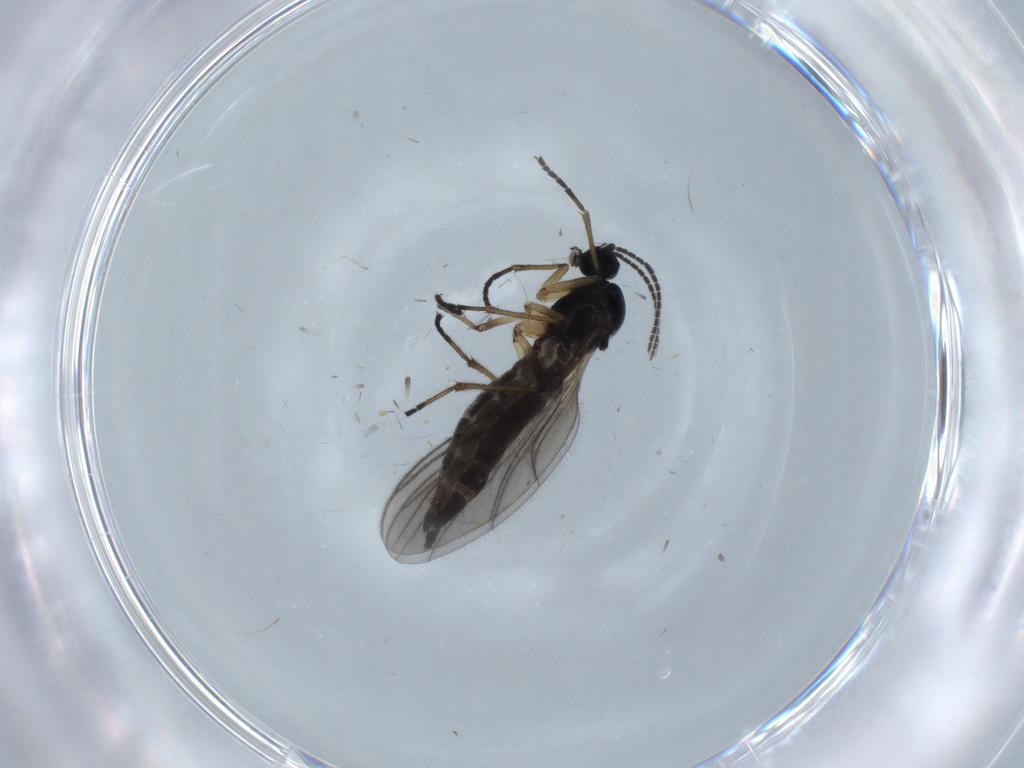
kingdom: Animalia
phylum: Arthropoda
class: Insecta
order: Diptera
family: Sciaridae
